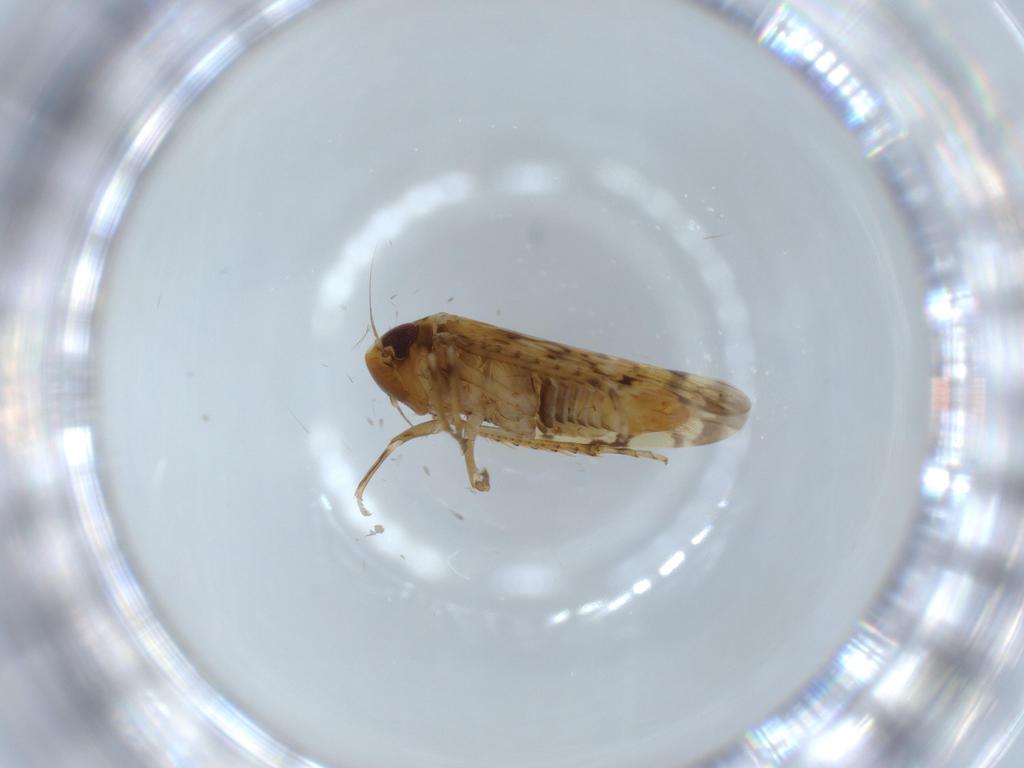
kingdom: Animalia
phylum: Arthropoda
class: Insecta
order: Hemiptera
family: Cicadellidae
